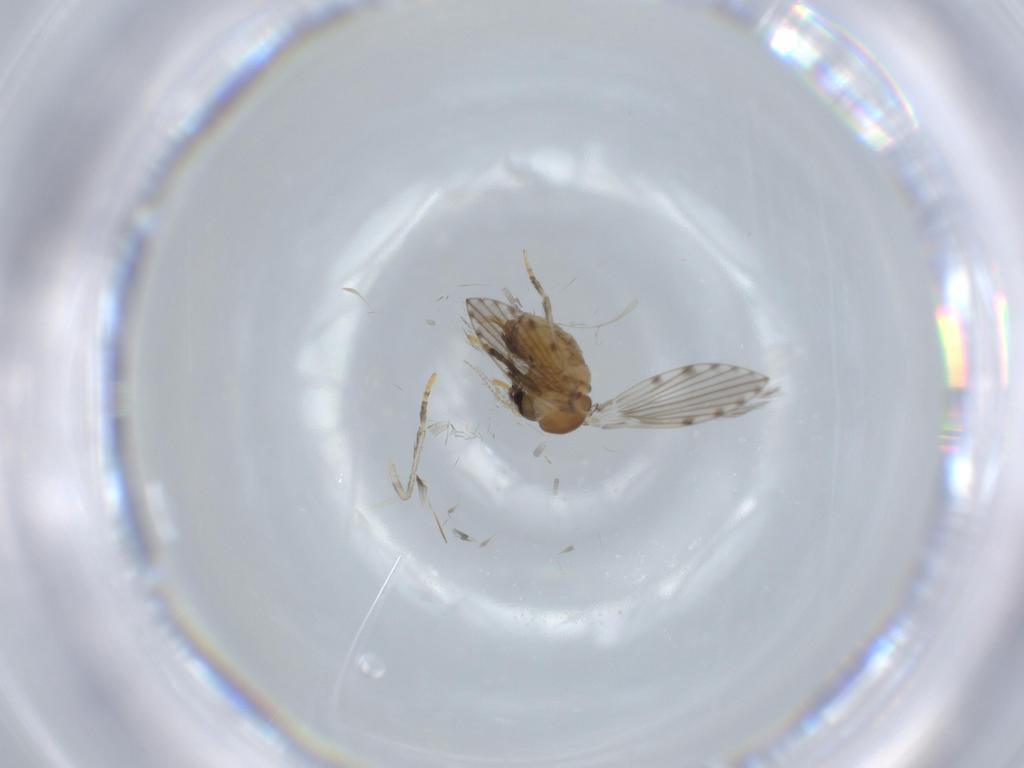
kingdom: Animalia
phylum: Arthropoda
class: Insecta
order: Diptera
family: Psychodidae
